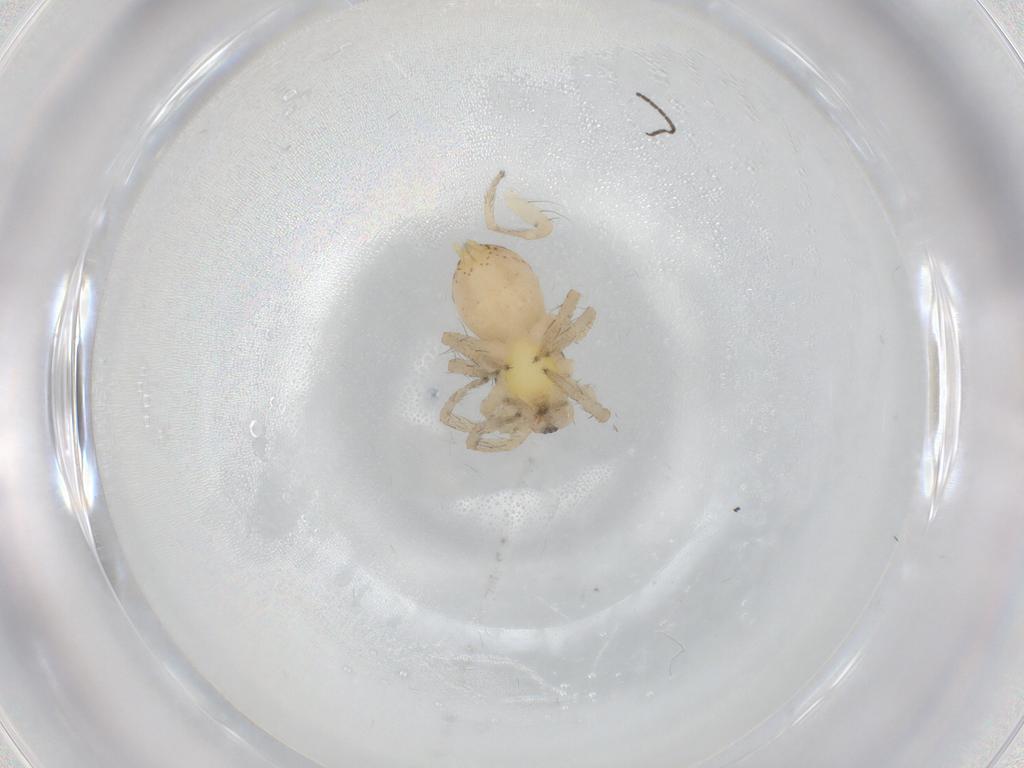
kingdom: Animalia
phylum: Arthropoda
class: Arachnida
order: Araneae
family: Anyphaenidae
